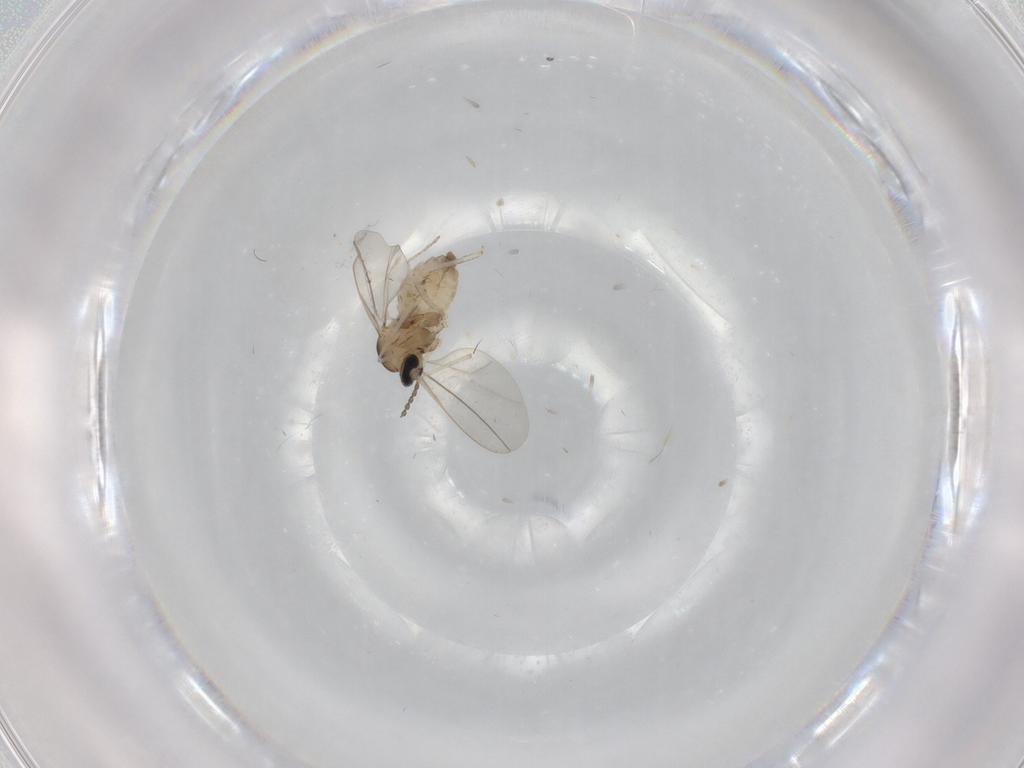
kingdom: Animalia
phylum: Arthropoda
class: Insecta
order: Diptera
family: Cecidomyiidae
